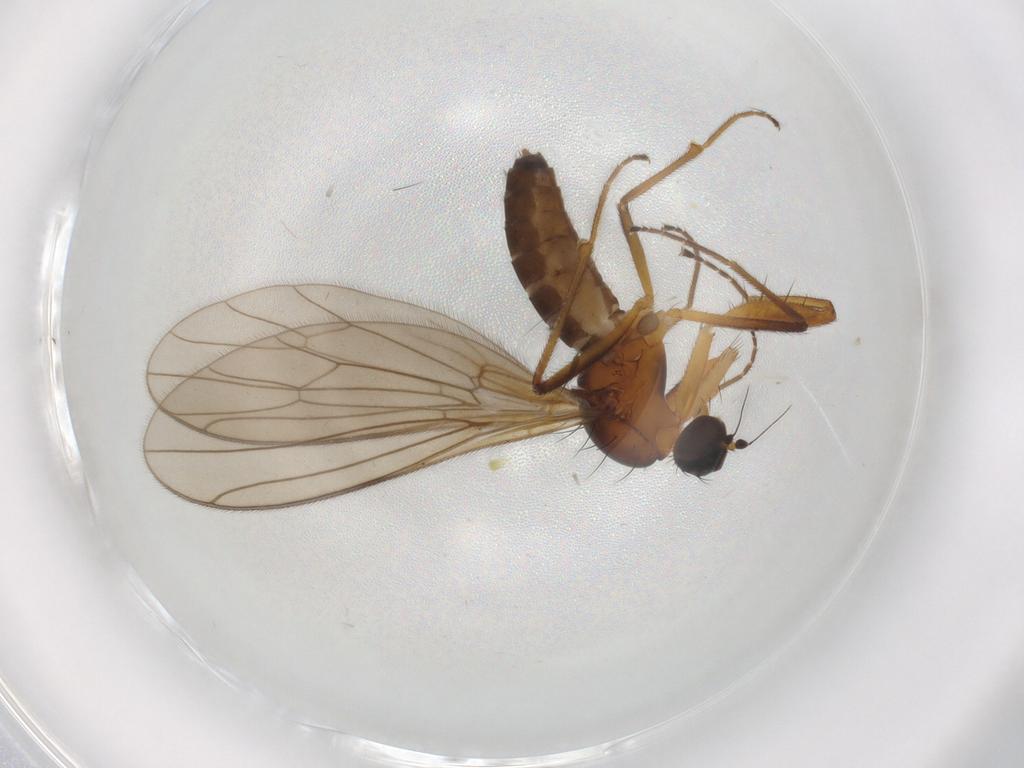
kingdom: Animalia
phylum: Arthropoda
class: Insecta
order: Diptera
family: Empididae
